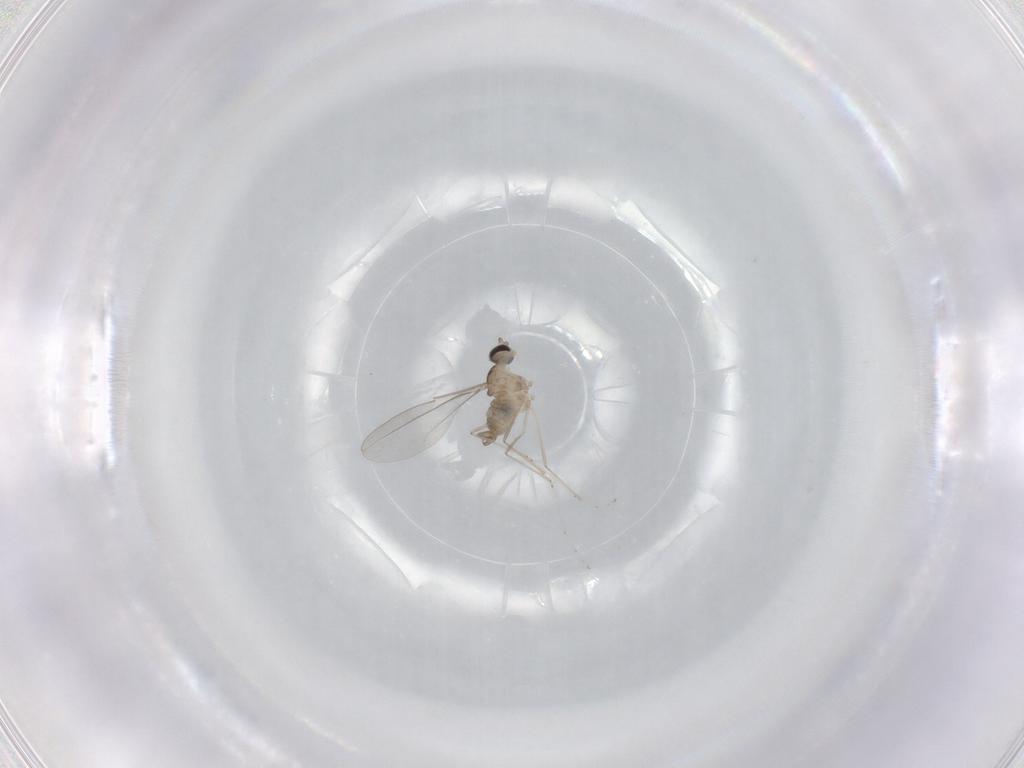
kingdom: Animalia
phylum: Arthropoda
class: Insecta
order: Diptera
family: Cecidomyiidae
